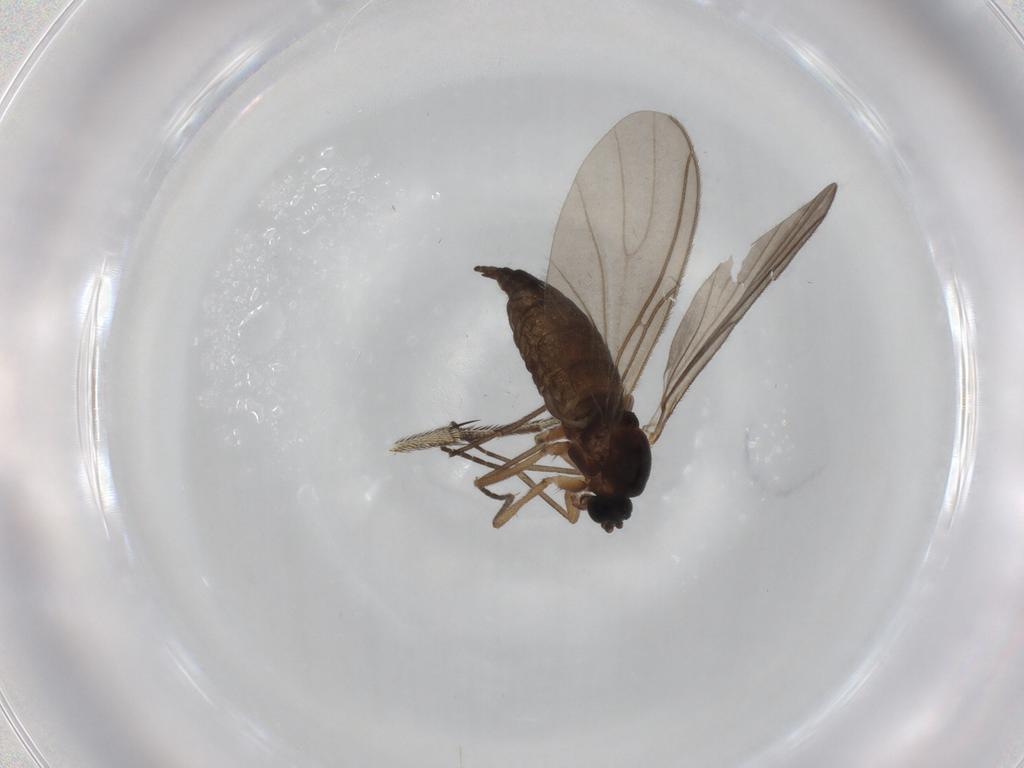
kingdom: Animalia
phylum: Arthropoda
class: Insecta
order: Diptera
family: Sciaridae
